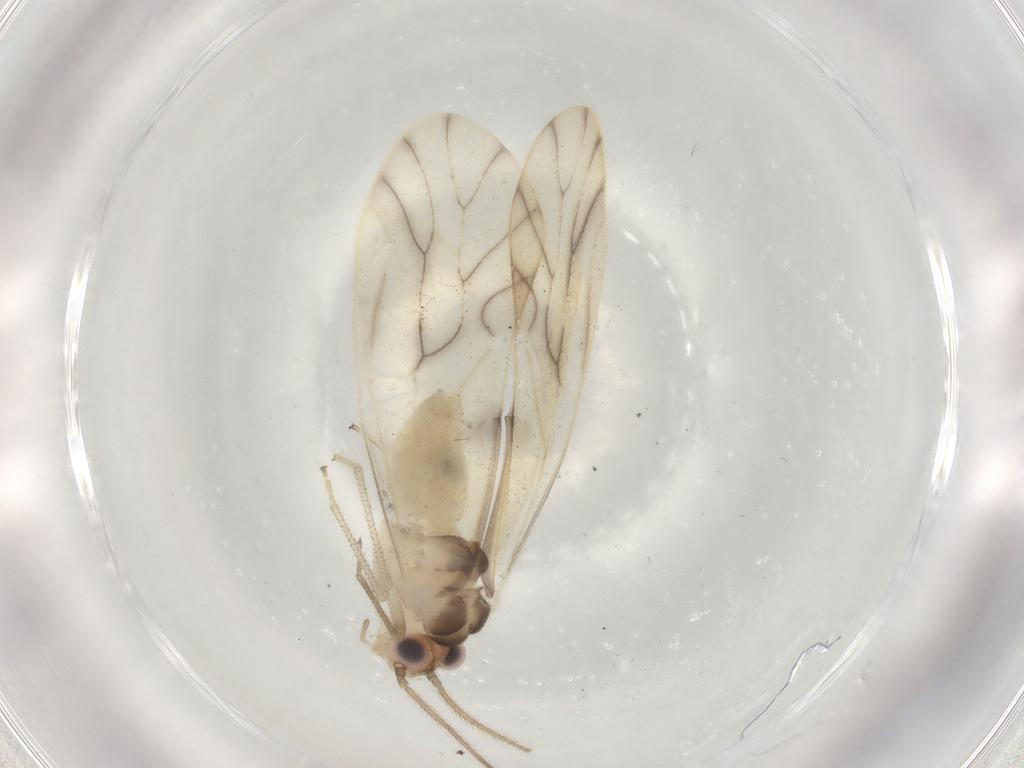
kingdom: Animalia
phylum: Arthropoda
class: Insecta
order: Psocodea
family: Caeciliusidae
